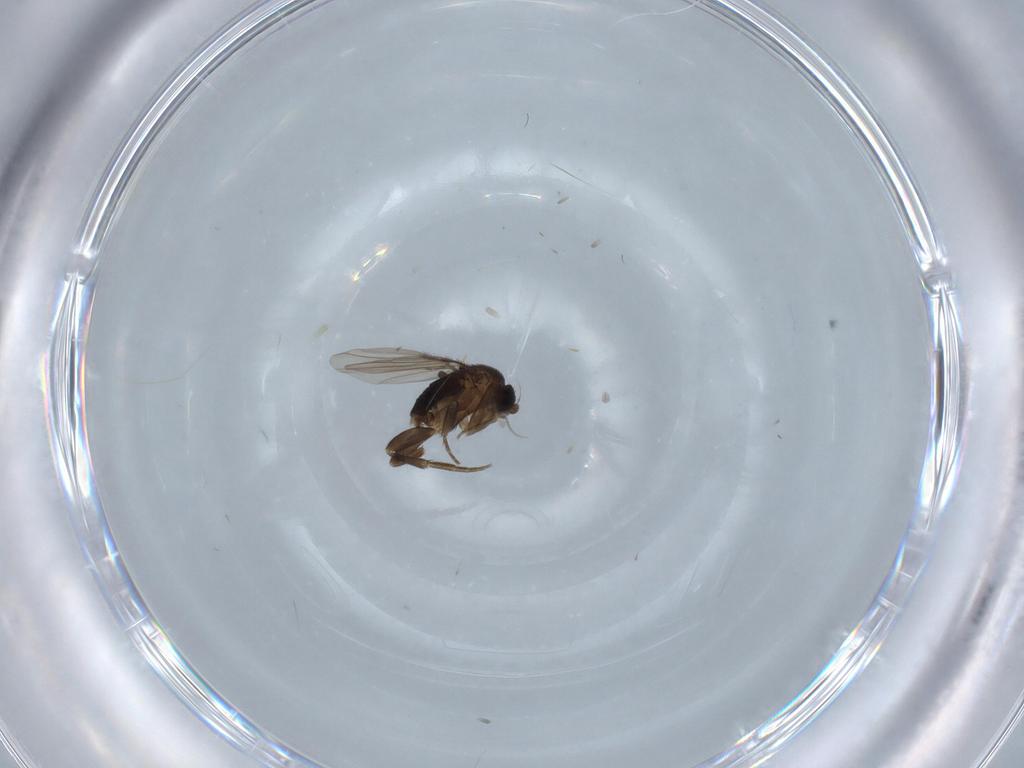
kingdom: Animalia
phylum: Arthropoda
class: Insecta
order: Diptera
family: Phoridae
